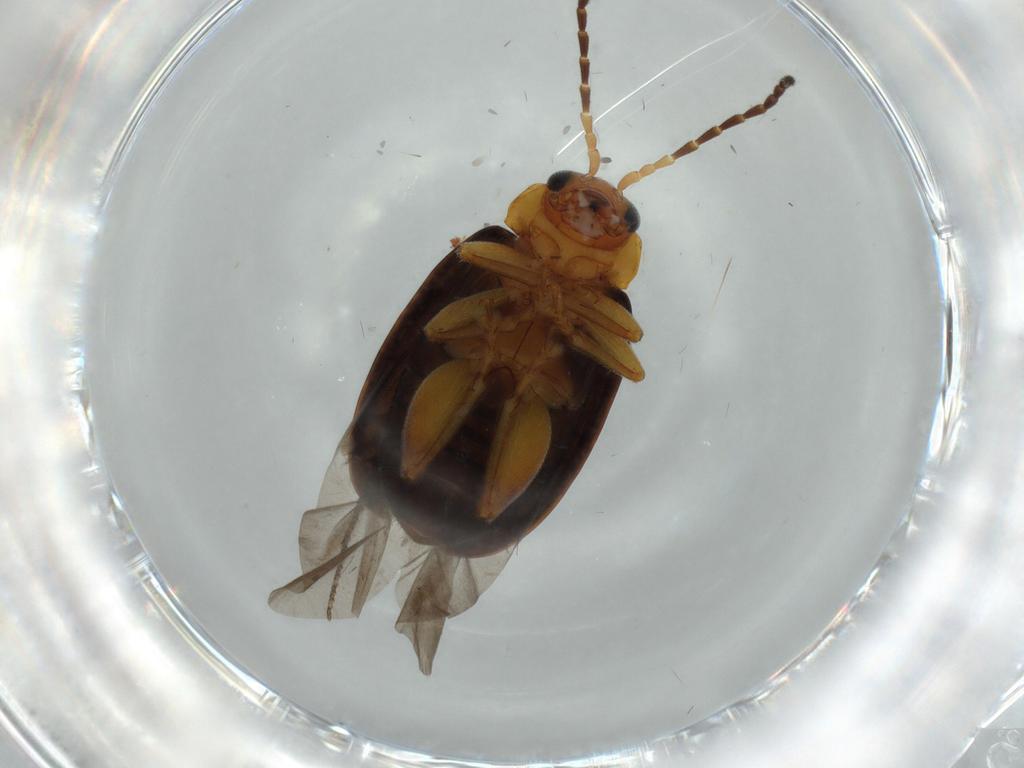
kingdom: Animalia
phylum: Arthropoda
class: Insecta
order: Coleoptera
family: Chrysomelidae
